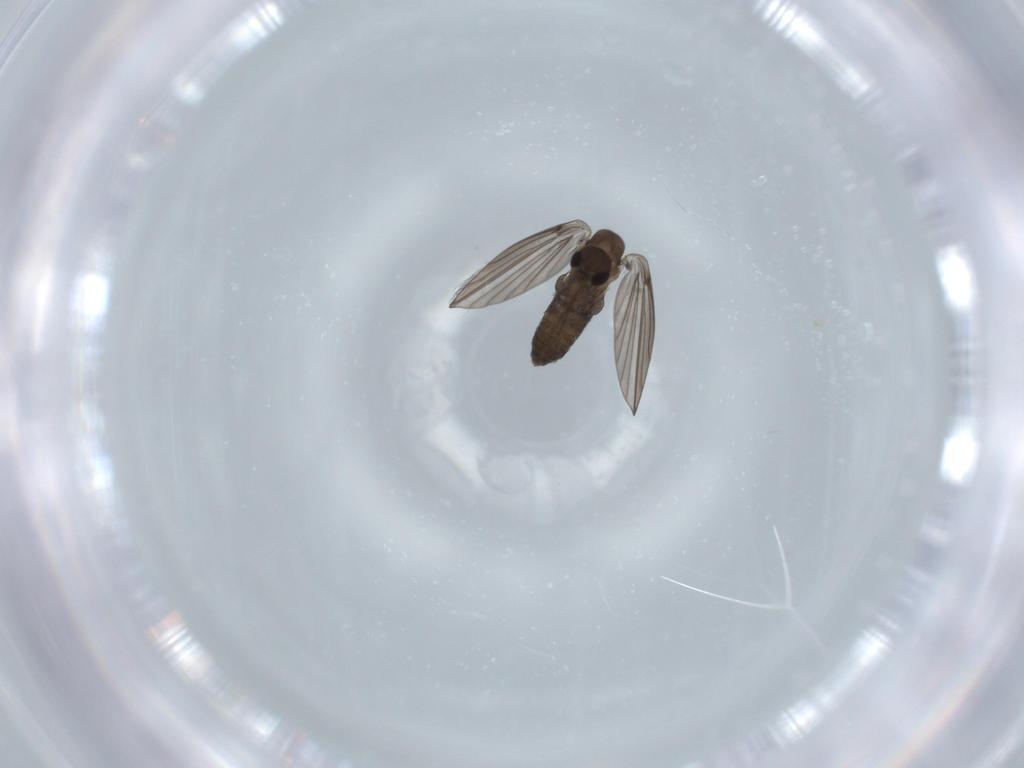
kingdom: Animalia
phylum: Arthropoda
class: Insecta
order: Diptera
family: Psychodidae
